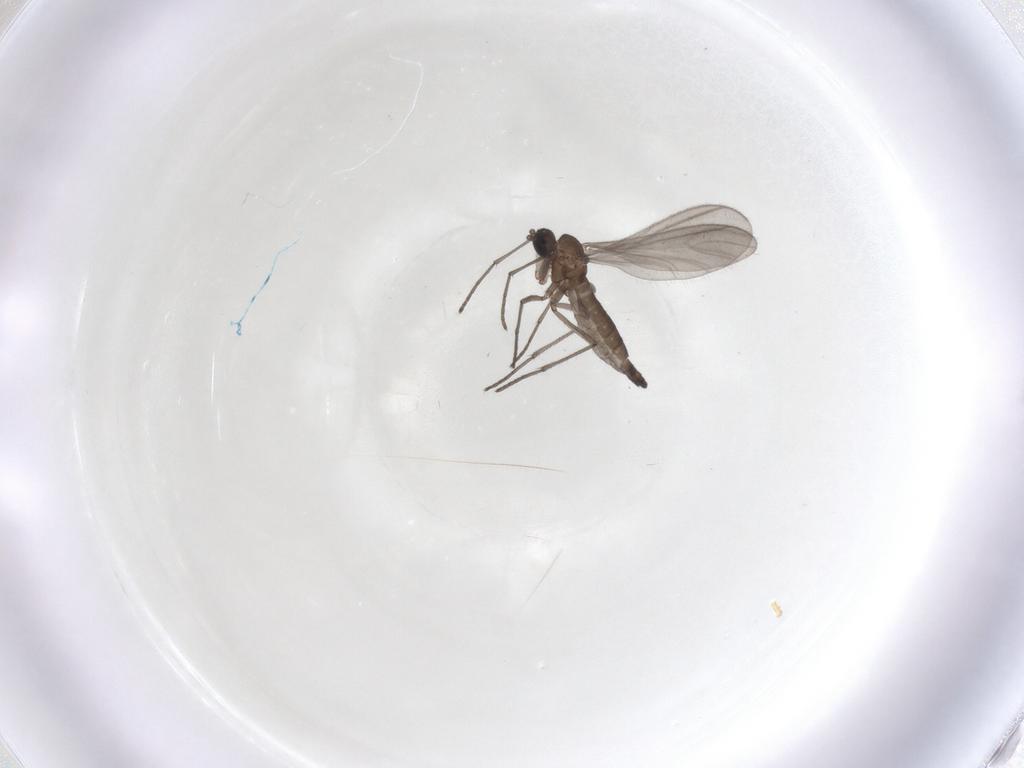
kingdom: Animalia
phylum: Arthropoda
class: Insecta
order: Diptera
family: Sciaridae
